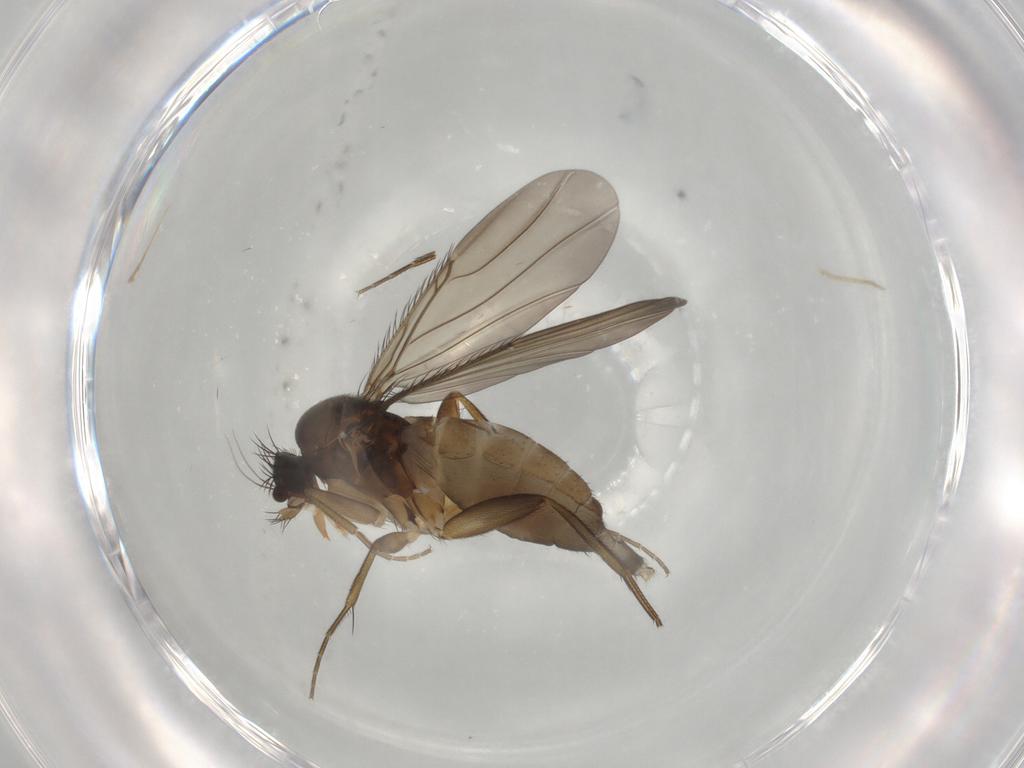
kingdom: Animalia
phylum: Arthropoda
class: Insecta
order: Diptera
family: Phoridae
